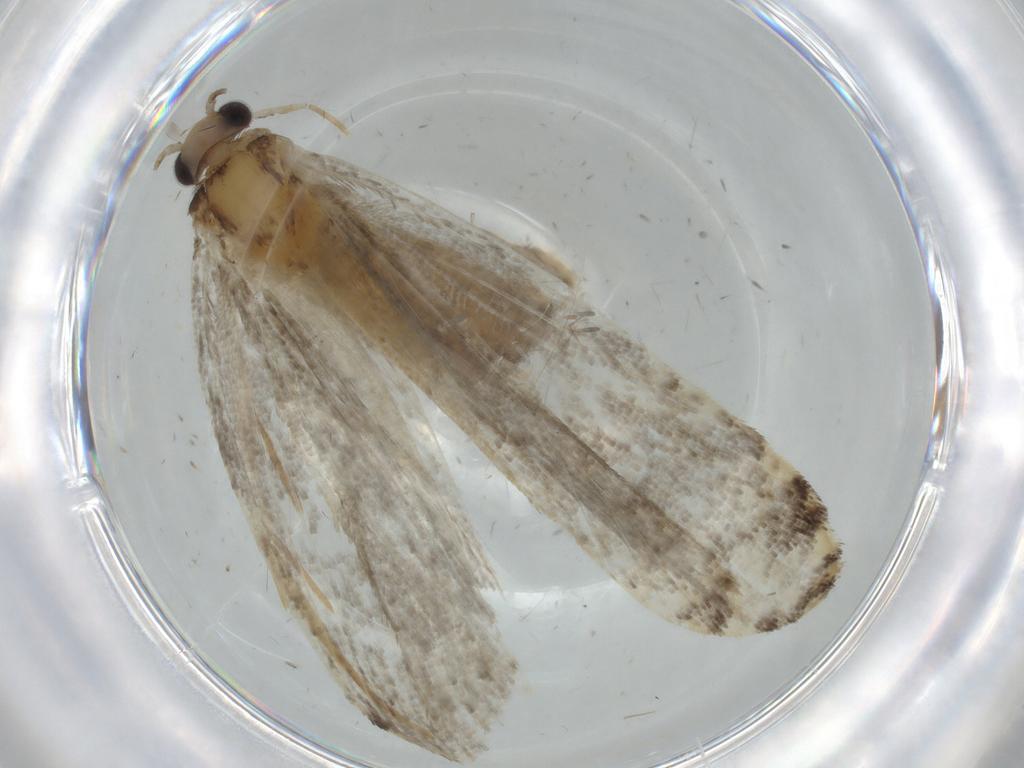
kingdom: Animalia
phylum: Arthropoda
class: Insecta
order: Lepidoptera
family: Tineidae
